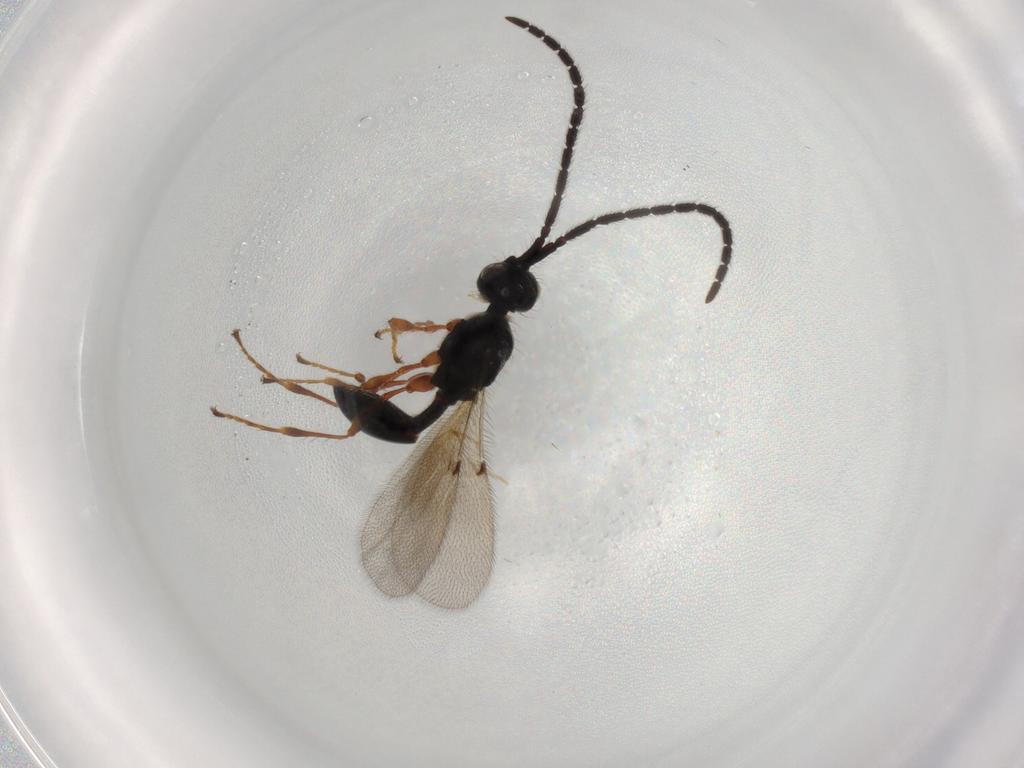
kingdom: Animalia
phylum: Arthropoda
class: Insecta
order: Hymenoptera
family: Diapriidae
